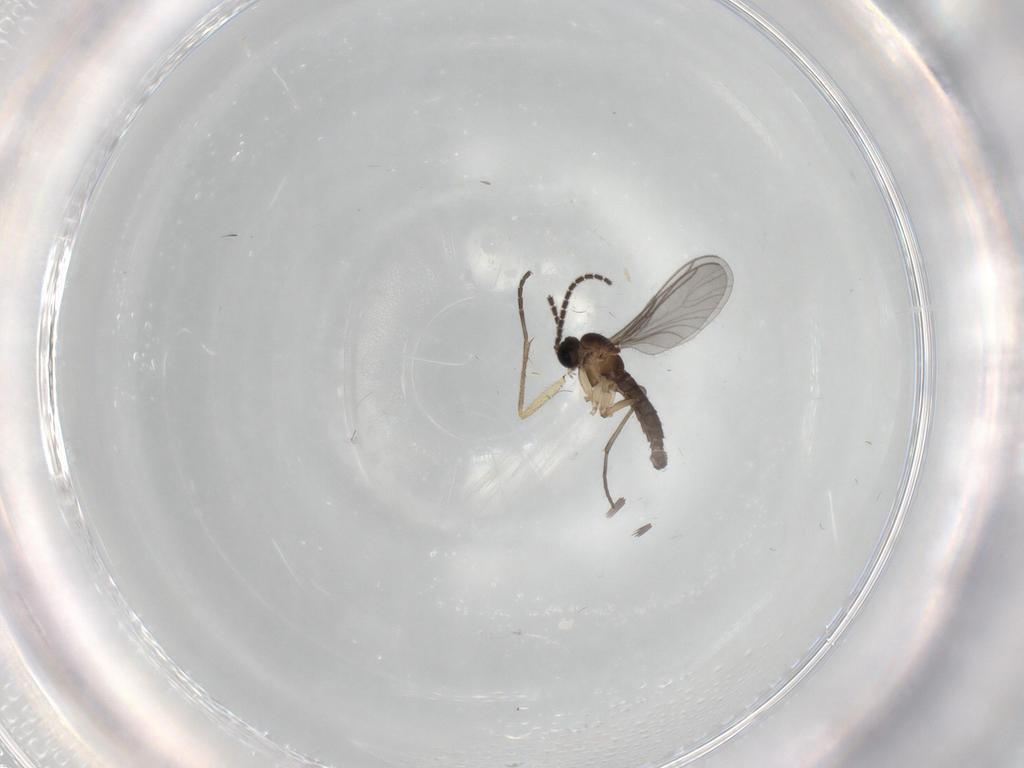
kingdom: Animalia
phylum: Arthropoda
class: Insecta
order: Diptera
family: Sciaridae
